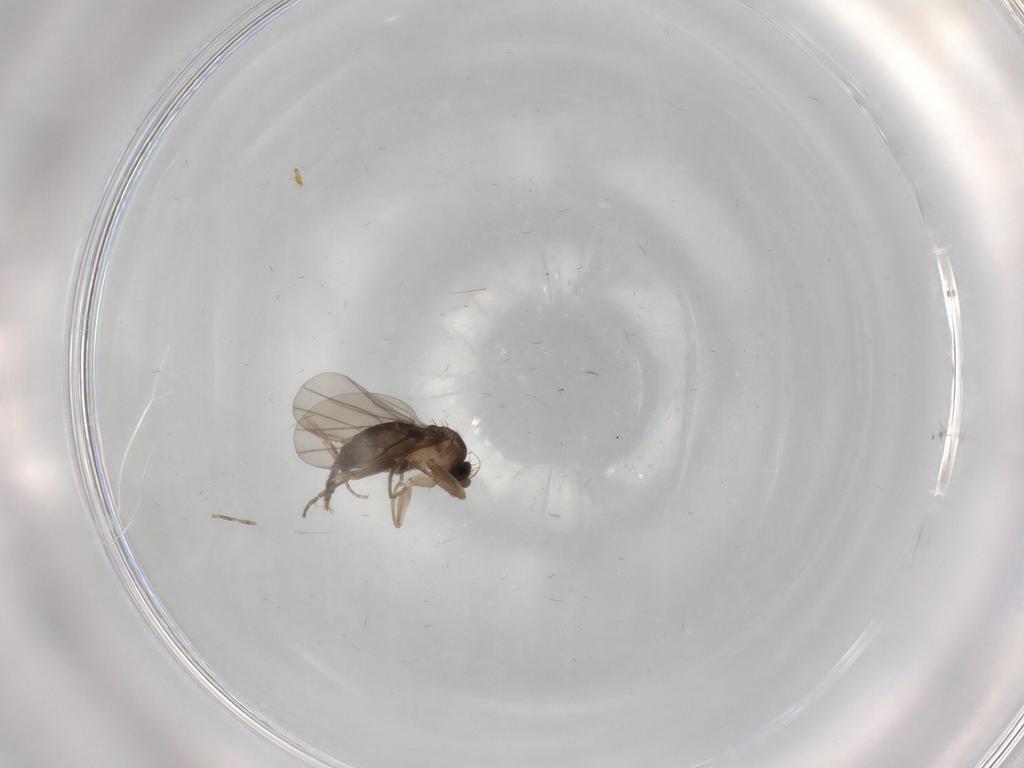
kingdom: Animalia
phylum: Arthropoda
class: Insecta
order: Diptera
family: Psychodidae
